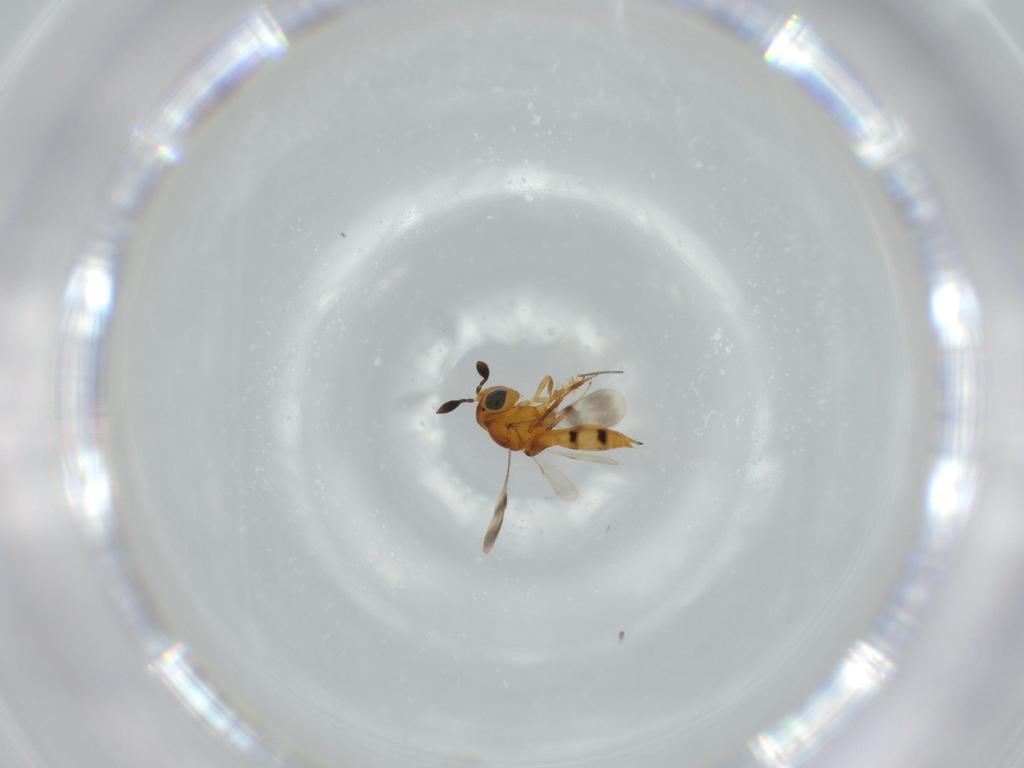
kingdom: Animalia
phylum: Arthropoda
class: Insecta
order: Hymenoptera
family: Scelionidae
